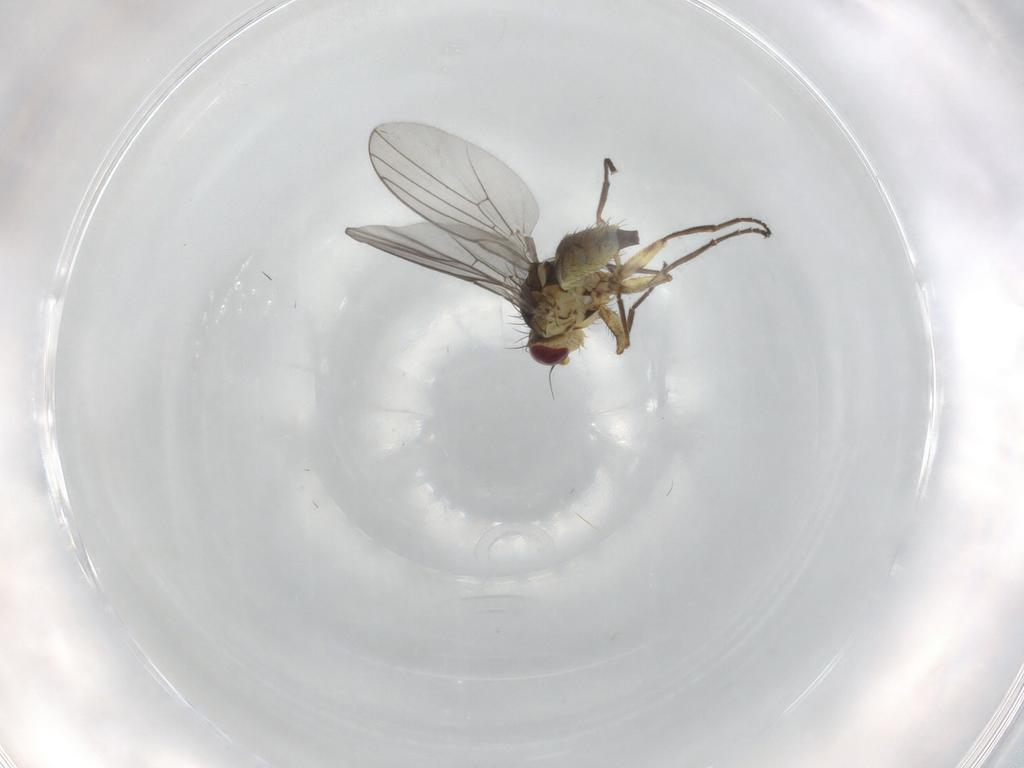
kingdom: Animalia
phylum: Arthropoda
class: Insecta
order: Diptera
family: Agromyzidae
